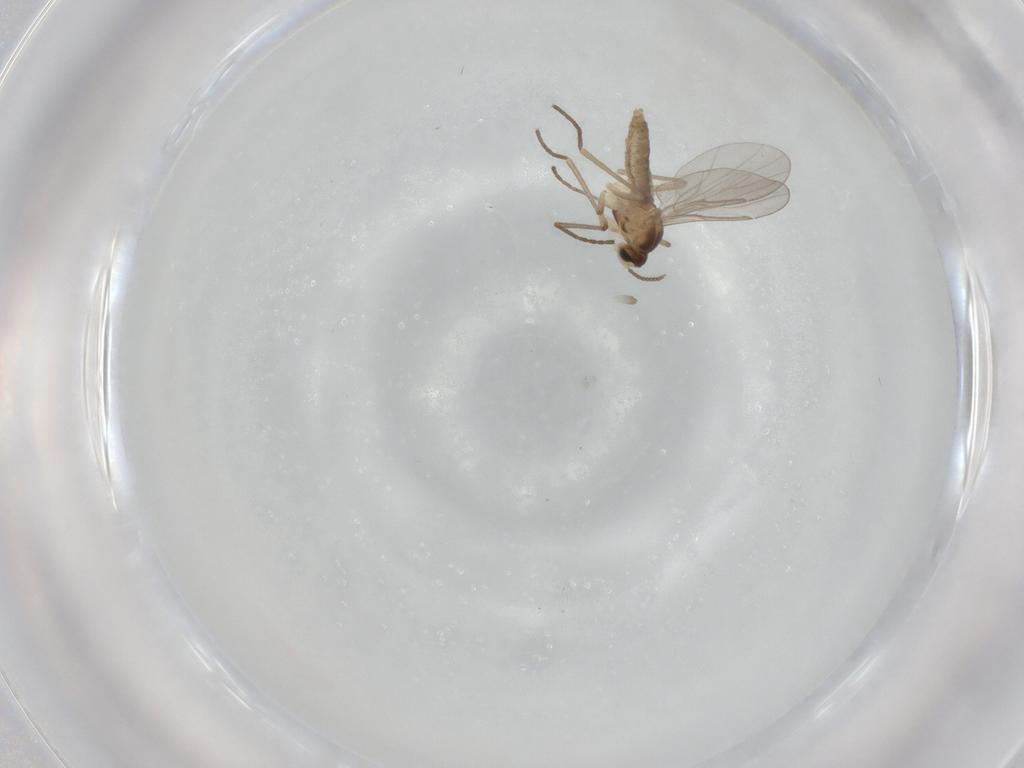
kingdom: Animalia
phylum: Arthropoda
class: Insecta
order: Diptera
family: Cecidomyiidae
